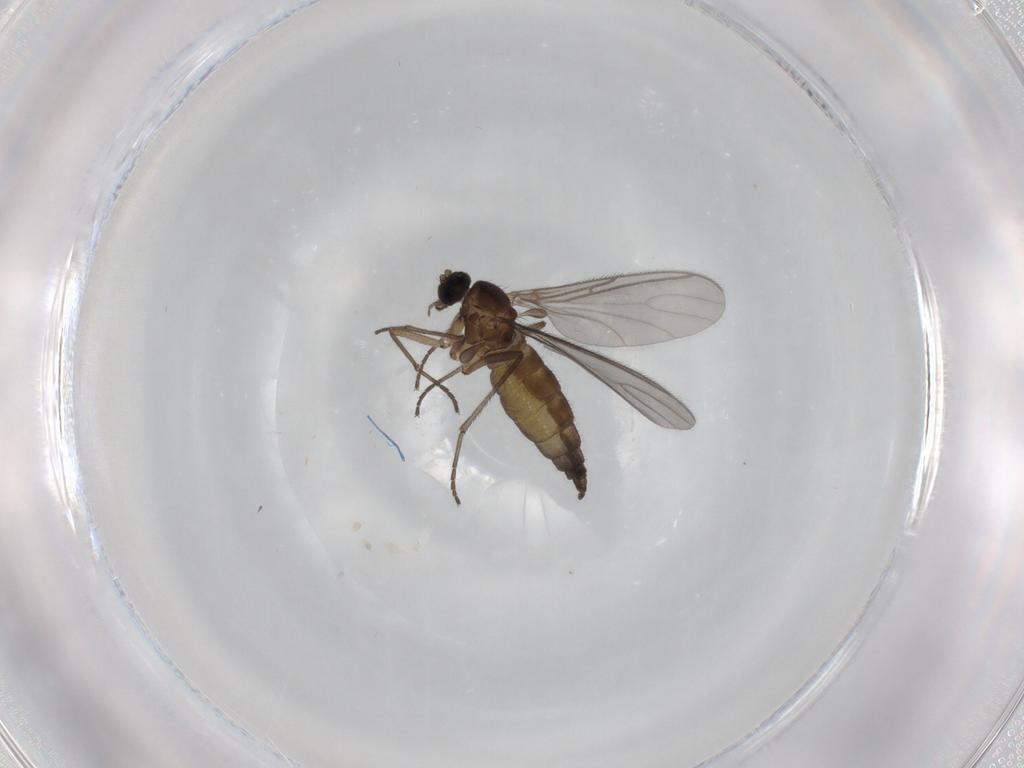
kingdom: Animalia
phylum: Arthropoda
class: Insecta
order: Diptera
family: Sciaridae
